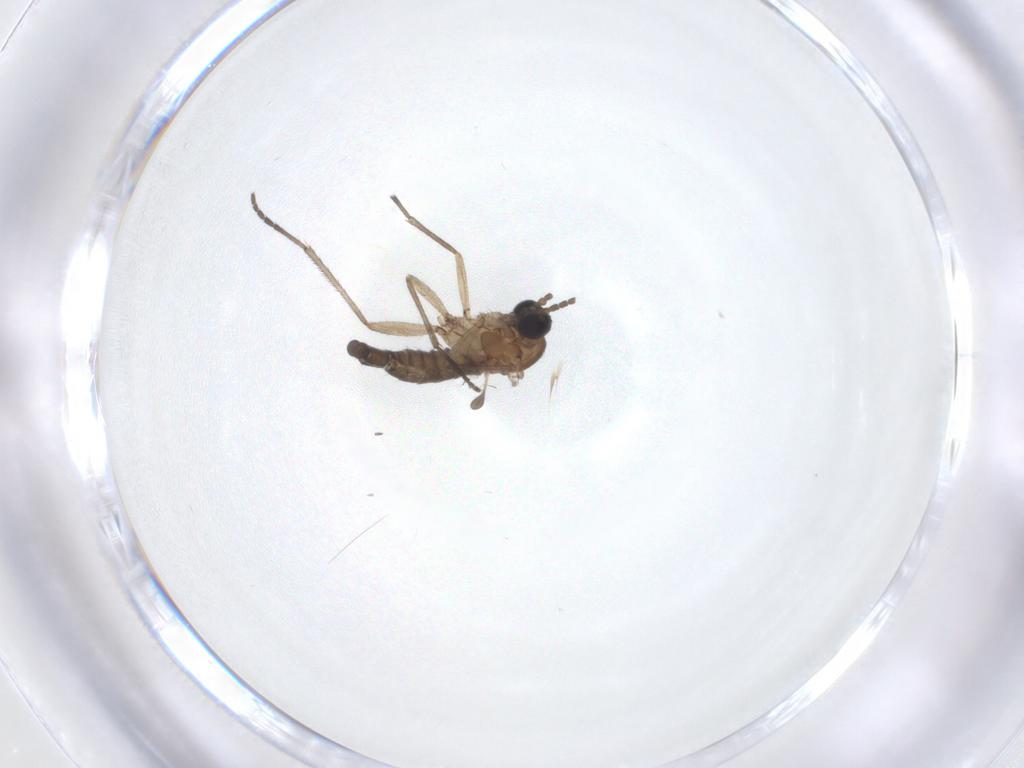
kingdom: Animalia
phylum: Arthropoda
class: Insecta
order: Diptera
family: Sciaridae
